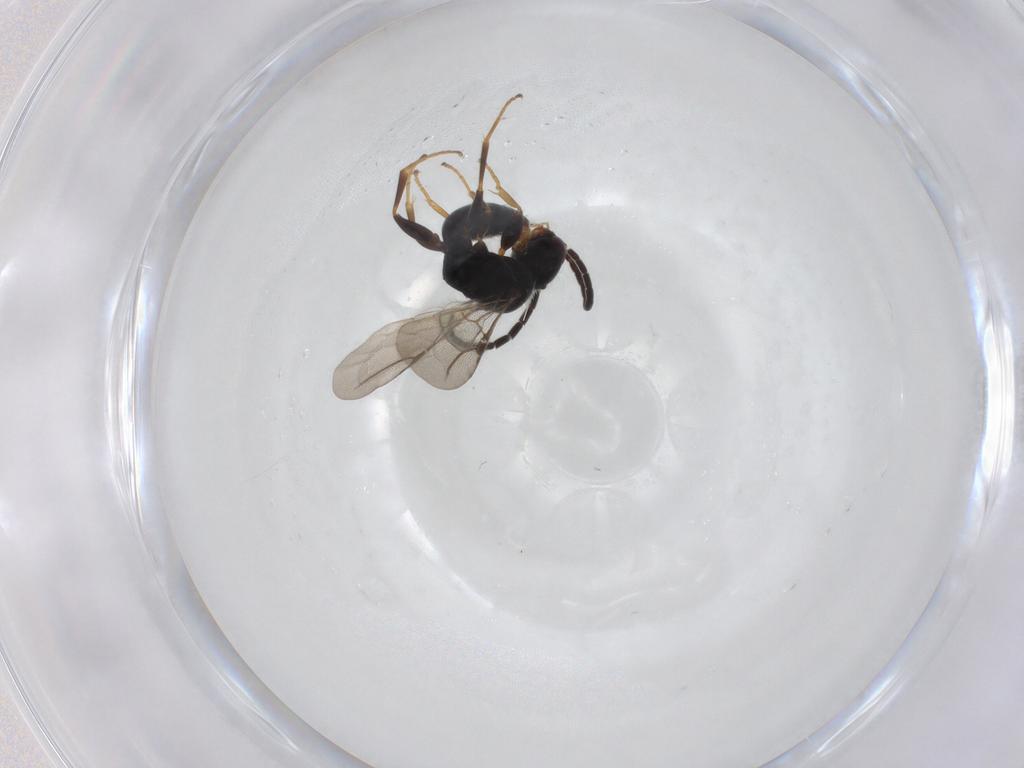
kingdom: Animalia
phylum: Arthropoda
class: Insecta
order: Hymenoptera
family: Bethylidae
